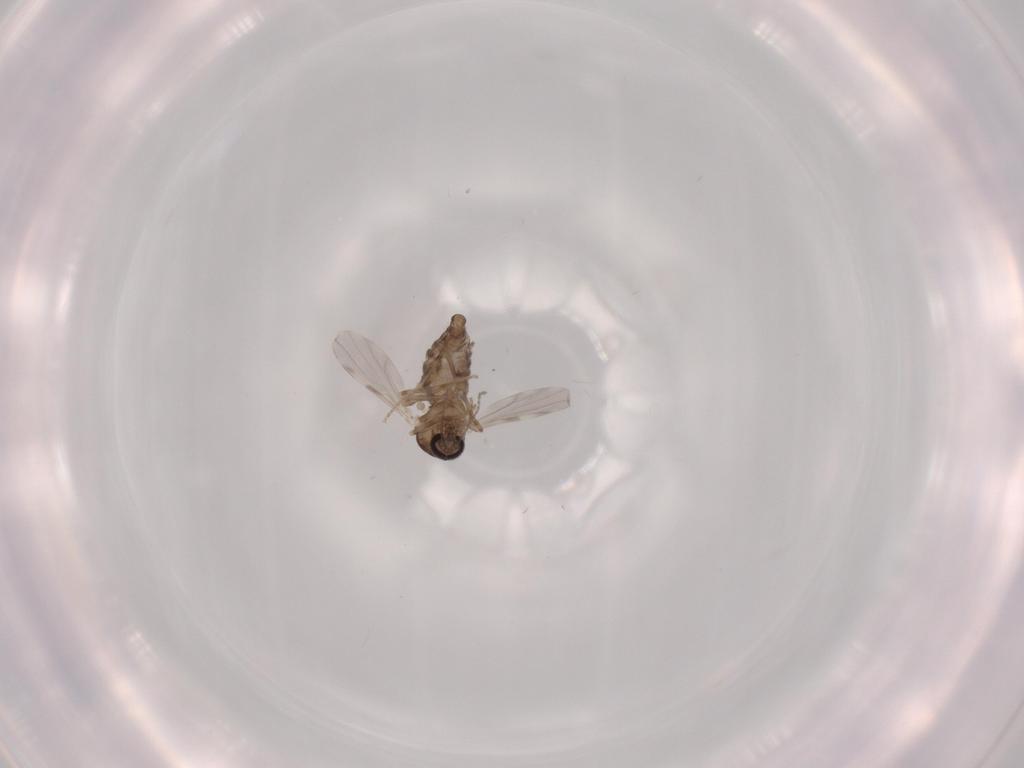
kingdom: Animalia
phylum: Arthropoda
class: Insecta
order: Diptera
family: Ceratopogonidae
